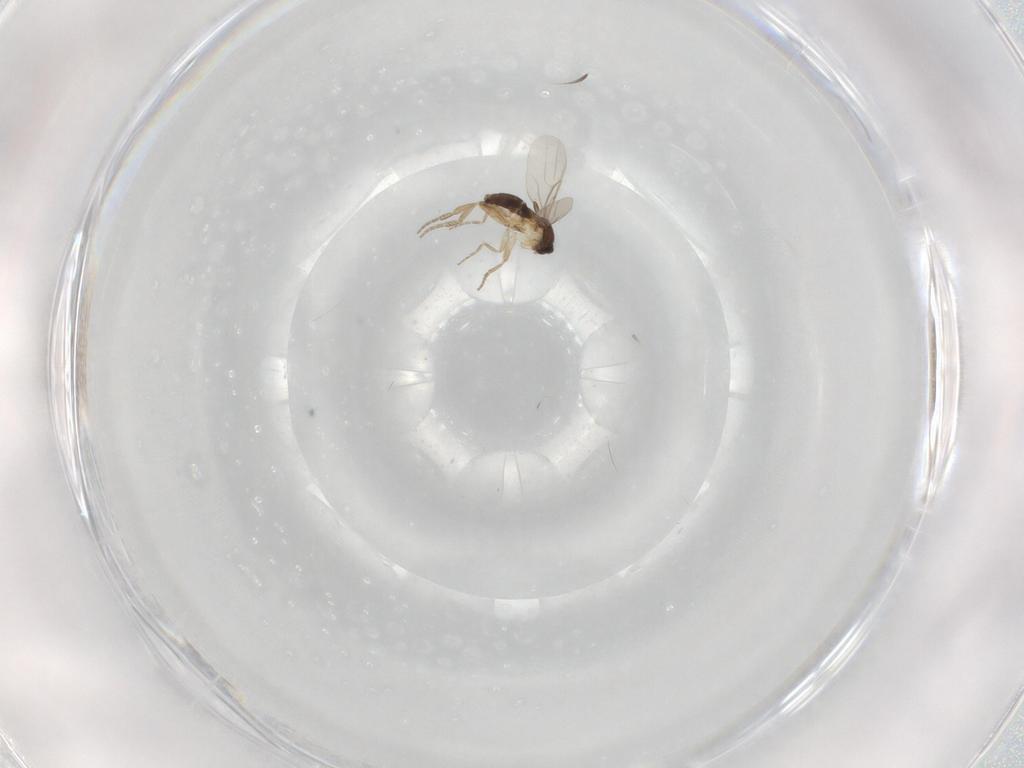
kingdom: Animalia
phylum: Arthropoda
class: Insecta
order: Diptera
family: Phoridae
